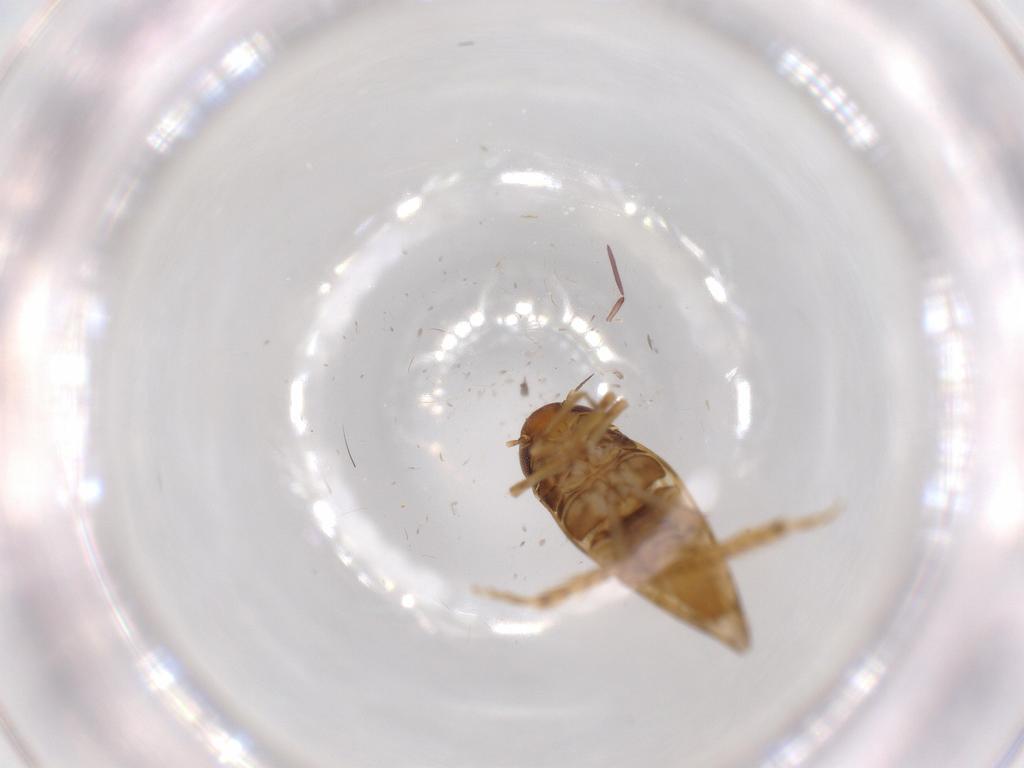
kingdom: Animalia
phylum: Arthropoda
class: Insecta
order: Hemiptera
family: Cicadellidae
